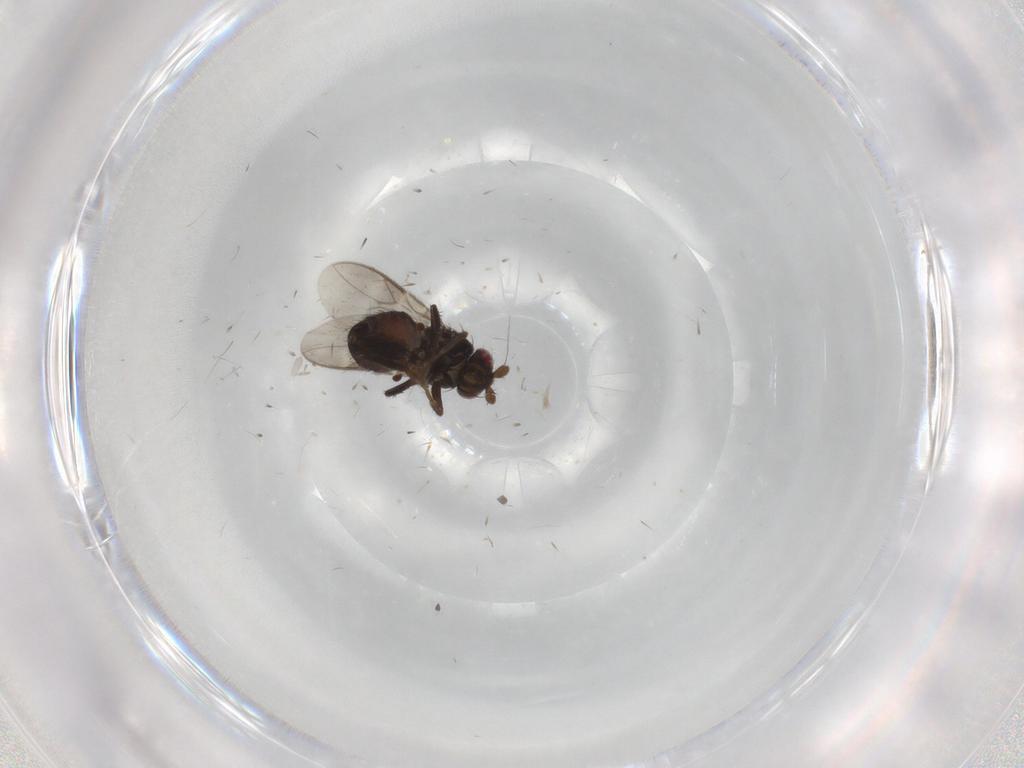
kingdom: Animalia
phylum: Arthropoda
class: Insecta
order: Diptera
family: Sphaeroceridae
